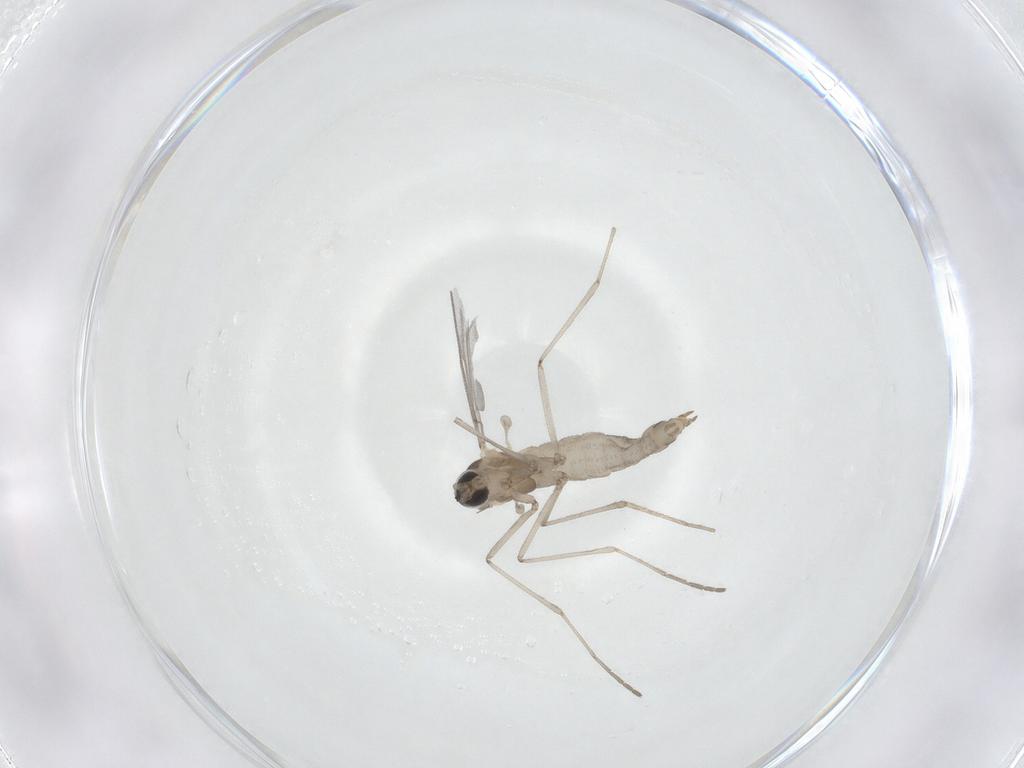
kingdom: Animalia
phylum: Arthropoda
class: Insecta
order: Diptera
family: Cecidomyiidae
